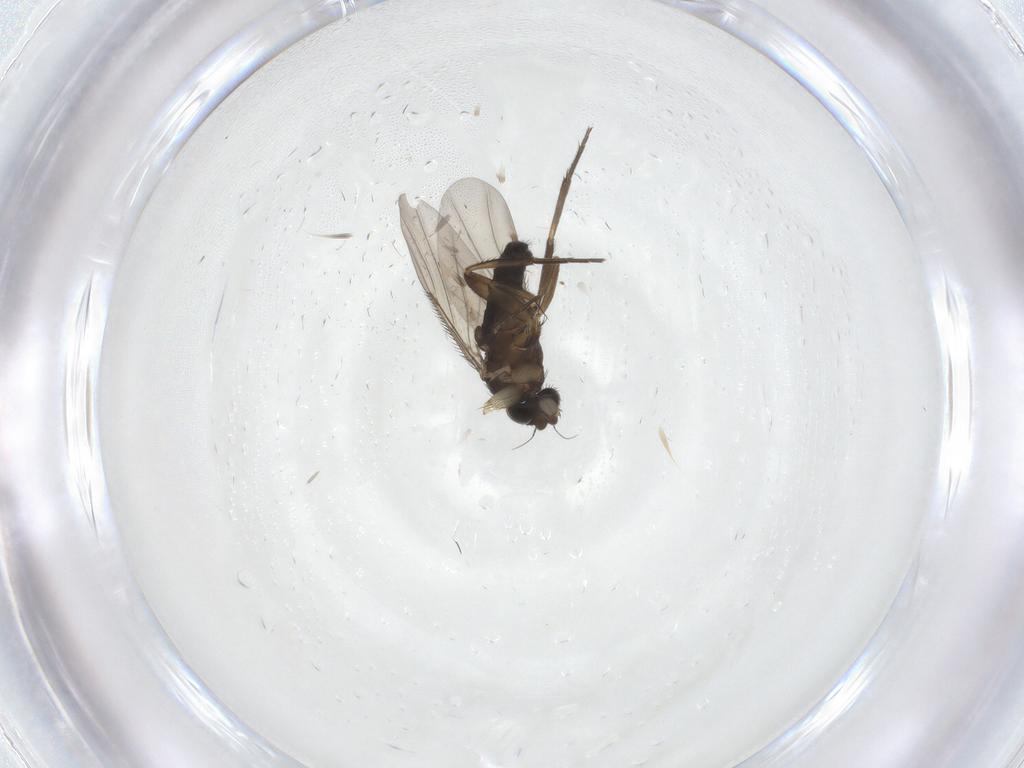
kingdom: Animalia
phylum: Arthropoda
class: Insecta
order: Diptera
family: Phoridae
